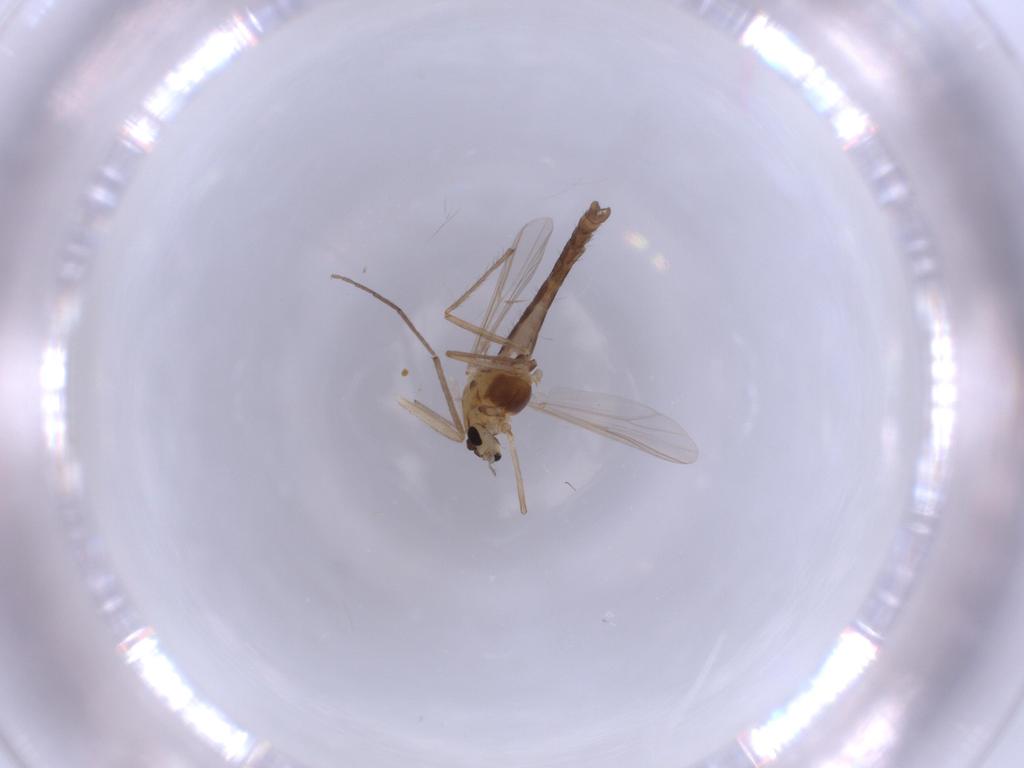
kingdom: Animalia
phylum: Arthropoda
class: Insecta
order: Diptera
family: Chironomidae
